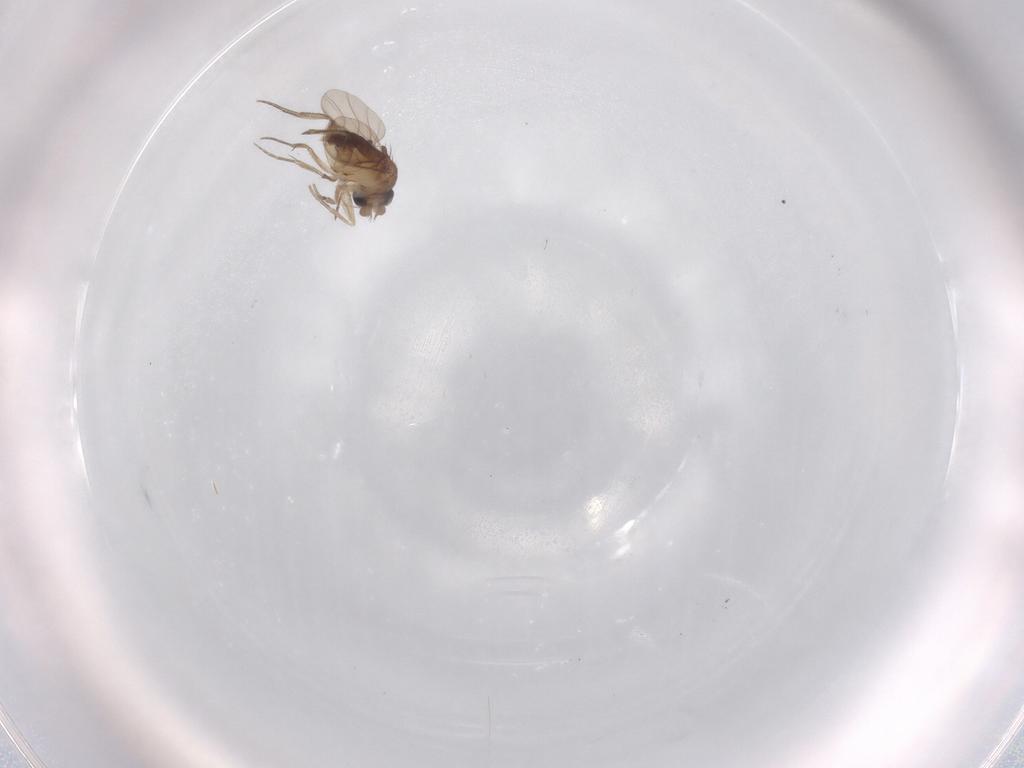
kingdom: Animalia
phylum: Arthropoda
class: Insecta
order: Diptera
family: Phoridae
